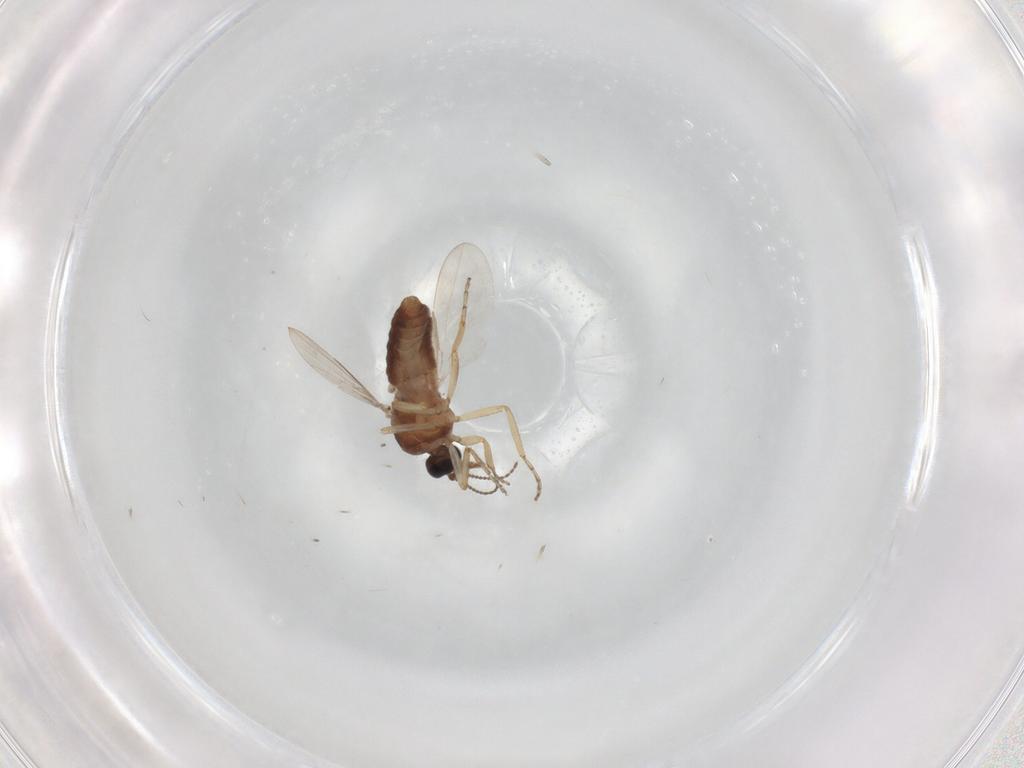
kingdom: Animalia
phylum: Arthropoda
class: Insecta
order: Diptera
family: Ceratopogonidae
